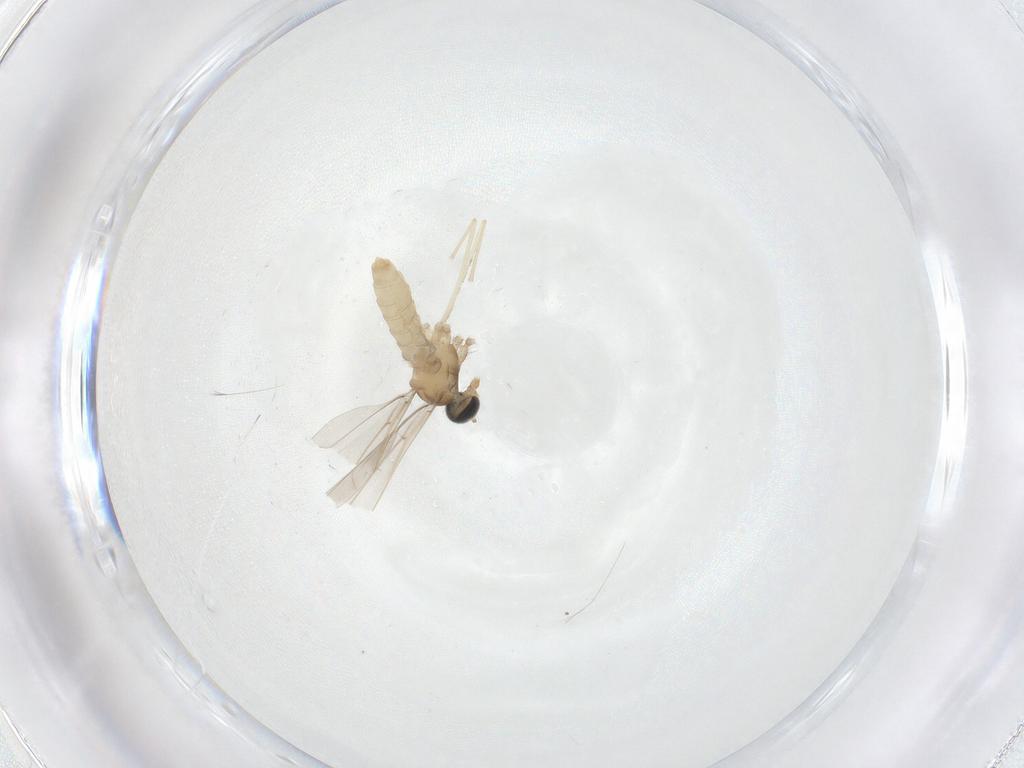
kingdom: Animalia
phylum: Arthropoda
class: Insecta
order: Diptera
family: Cecidomyiidae
